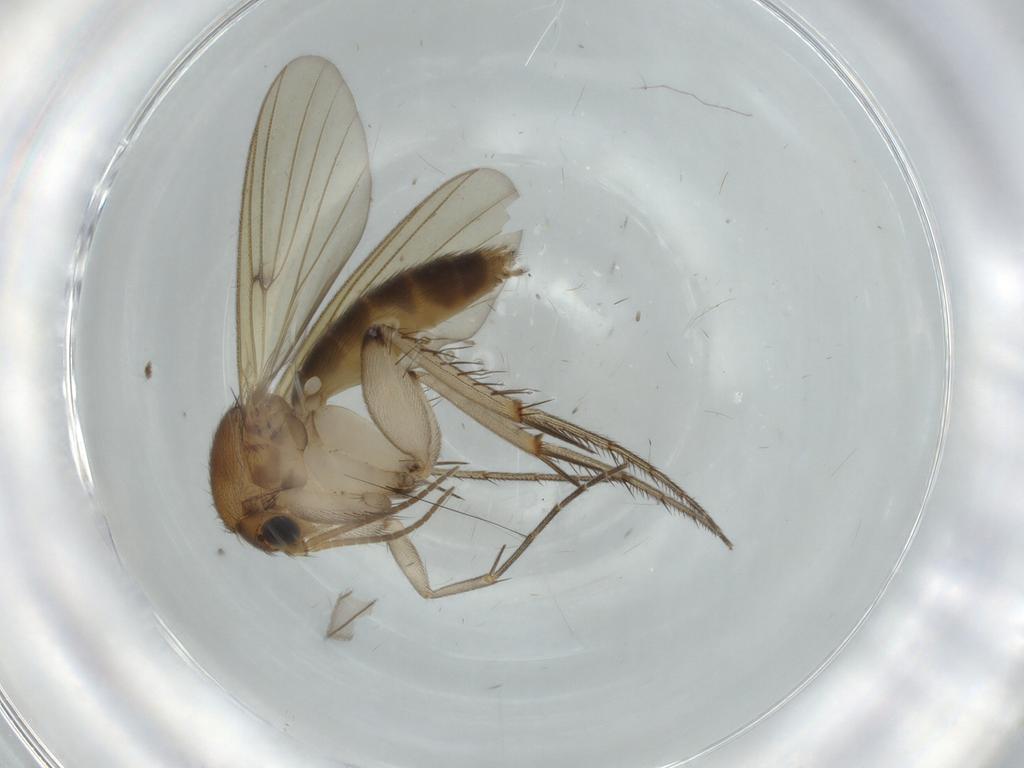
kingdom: Animalia
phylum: Arthropoda
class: Insecta
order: Diptera
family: Sciaridae
